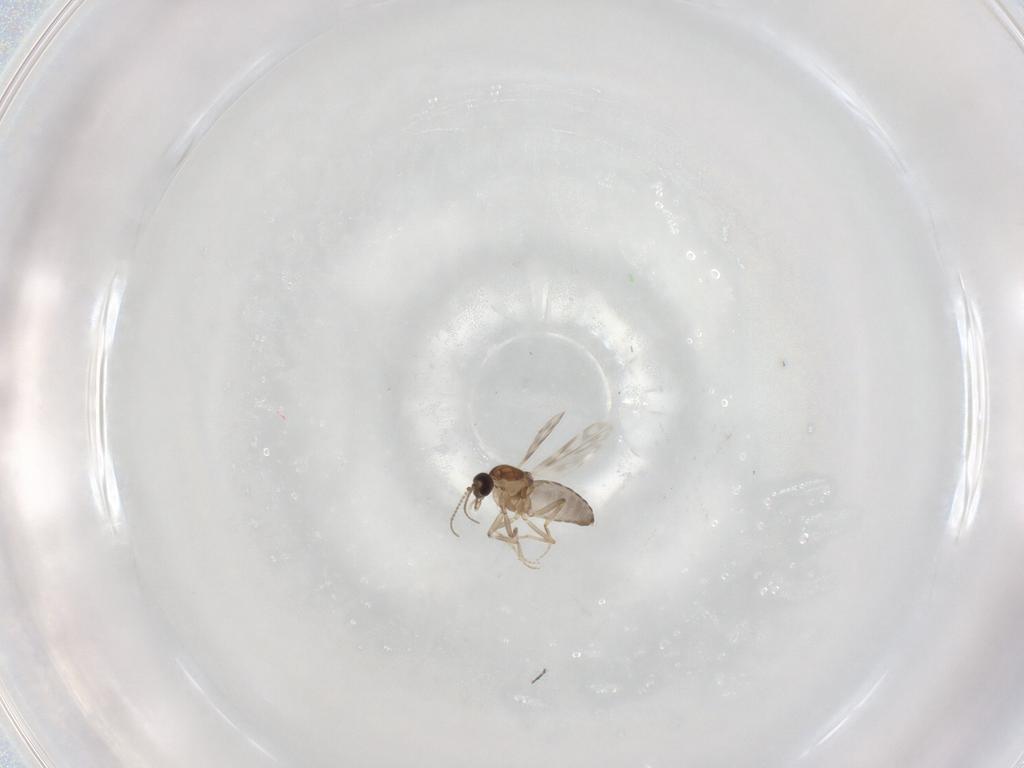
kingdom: Animalia
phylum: Arthropoda
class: Insecta
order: Diptera
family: Ceratopogonidae
